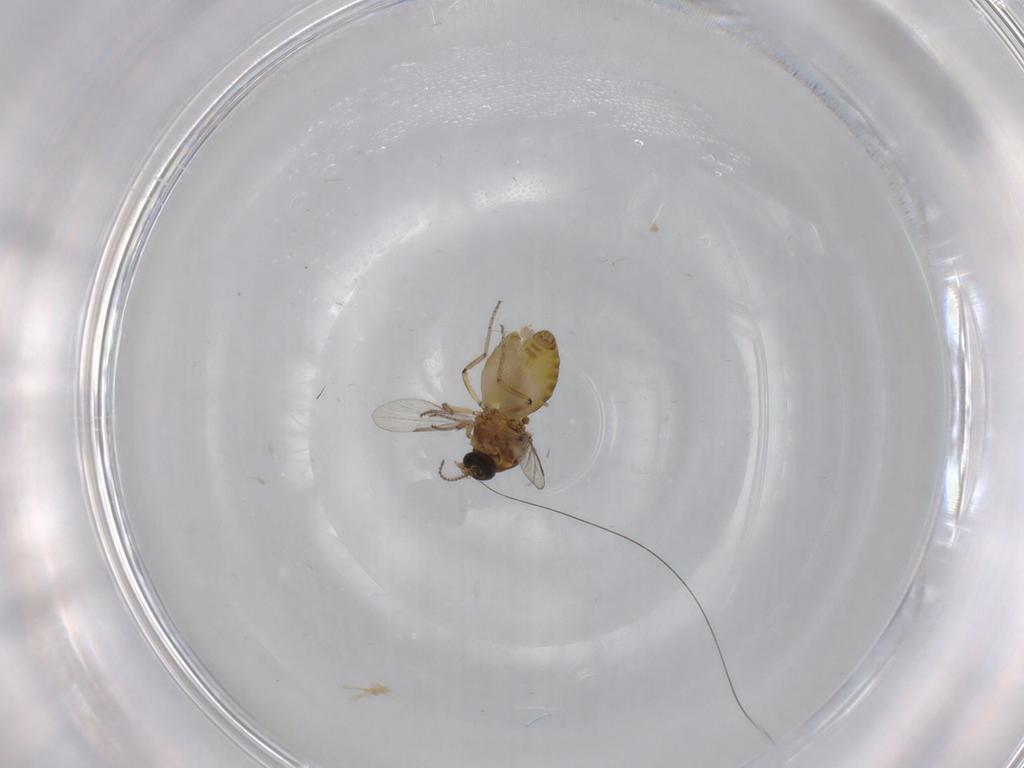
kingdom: Animalia
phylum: Arthropoda
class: Insecta
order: Diptera
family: Ceratopogonidae
